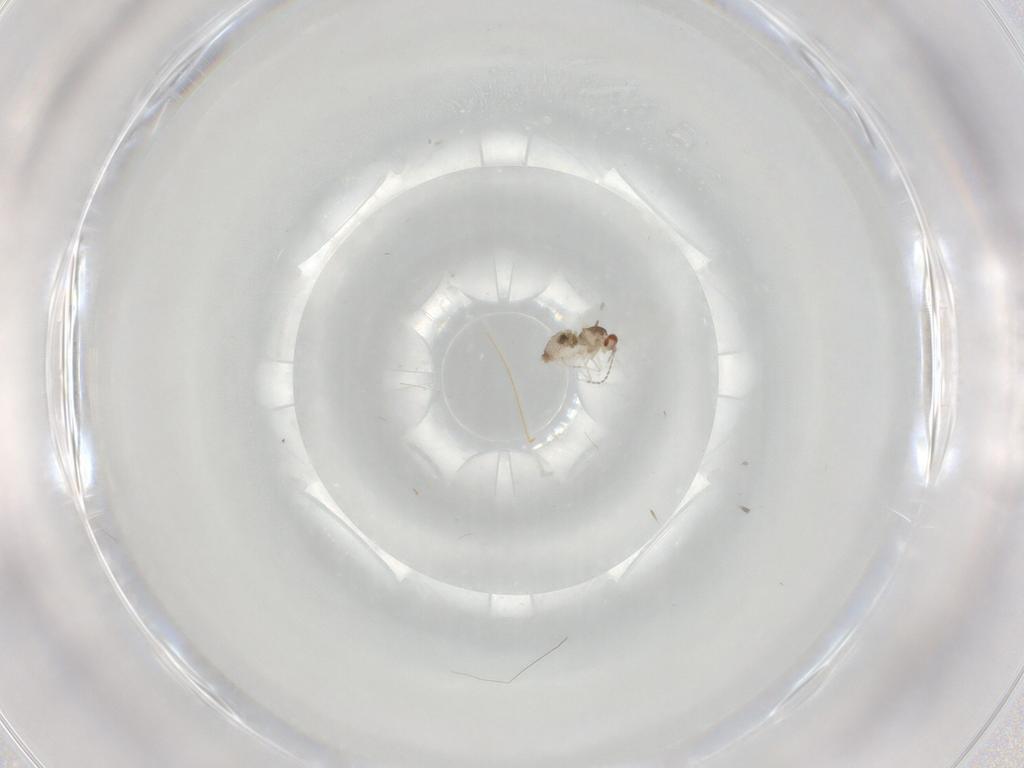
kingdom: Animalia
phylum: Arthropoda
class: Insecta
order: Diptera
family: Cecidomyiidae
